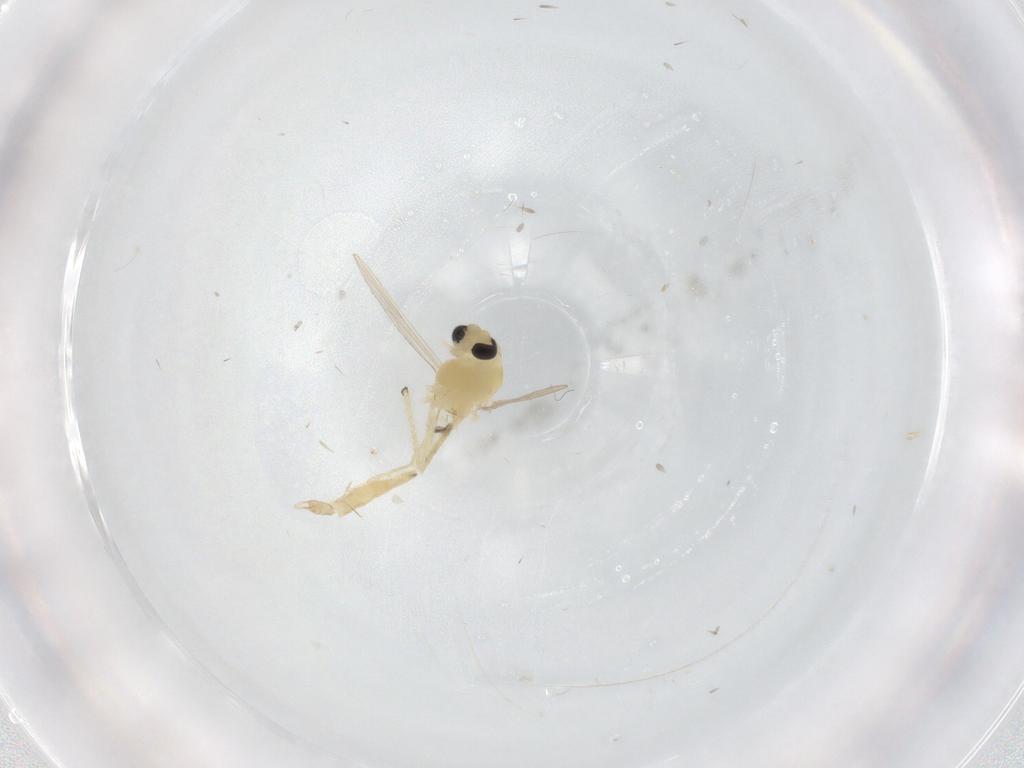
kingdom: Animalia
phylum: Arthropoda
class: Insecta
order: Diptera
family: Chironomidae
